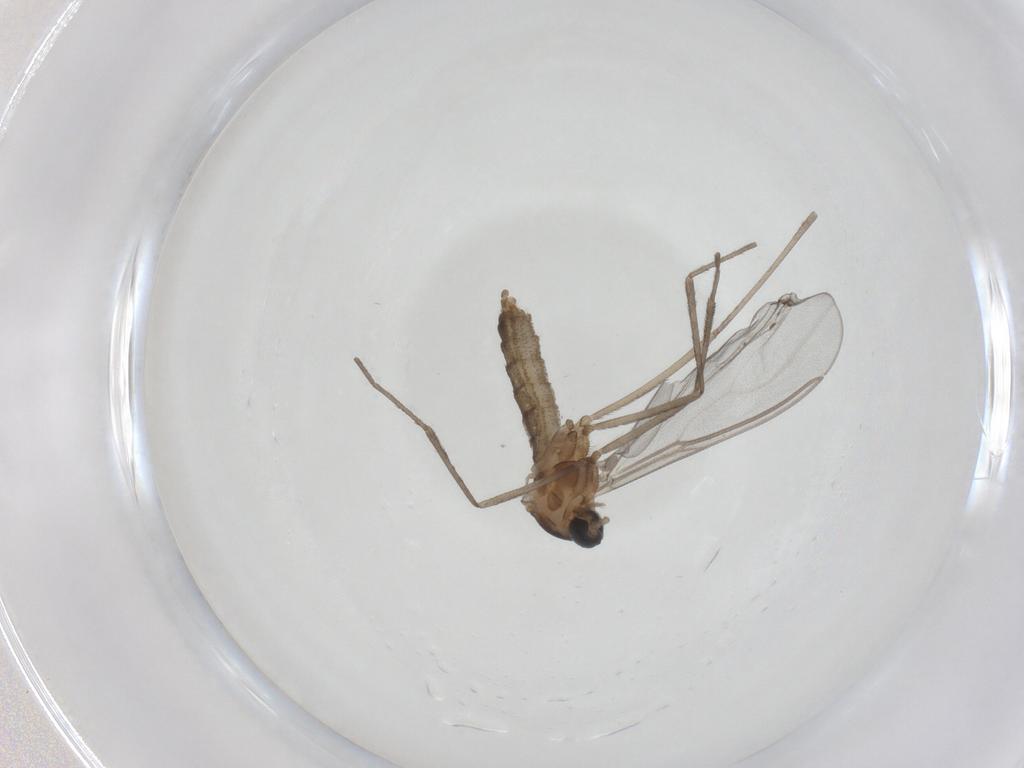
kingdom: Animalia
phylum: Arthropoda
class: Insecta
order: Diptera
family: Cecidomyiidae
